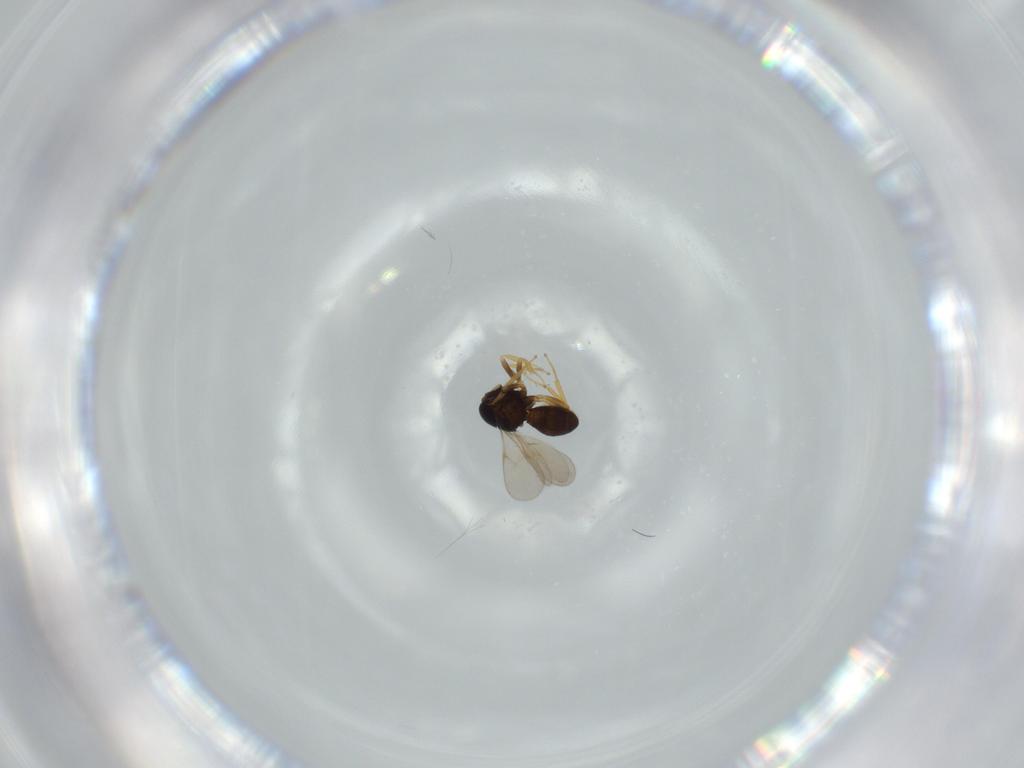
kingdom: Animalia
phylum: Arthropoda
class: Insecta
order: Hymenoptera
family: Scelionidae
